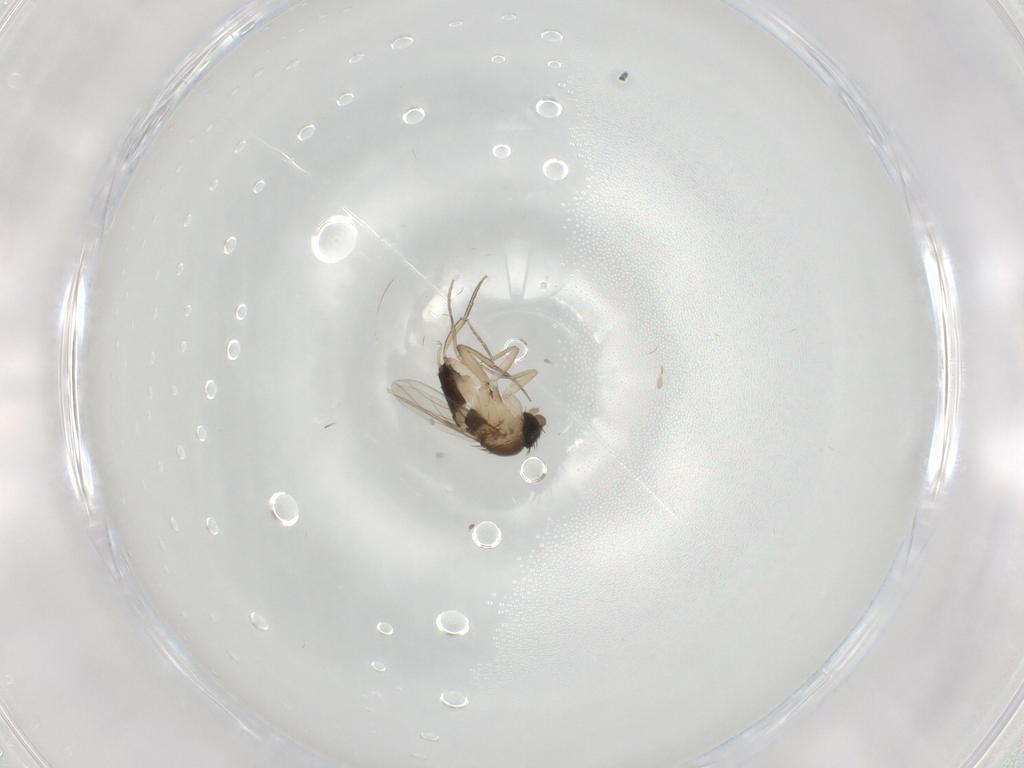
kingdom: Animalia
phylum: Arthropoda
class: Insecta
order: Diptera
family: Phoridae
